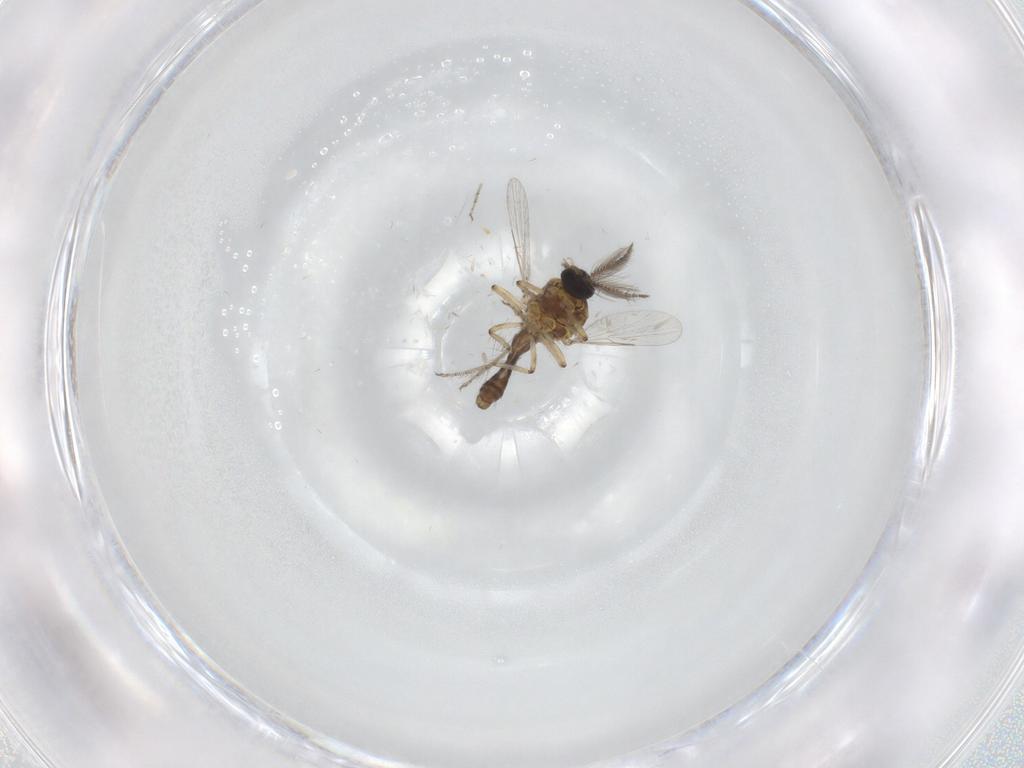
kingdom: Animalia
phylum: Arthropoda
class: Insecta
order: Diptera
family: Ceratopogonidae
